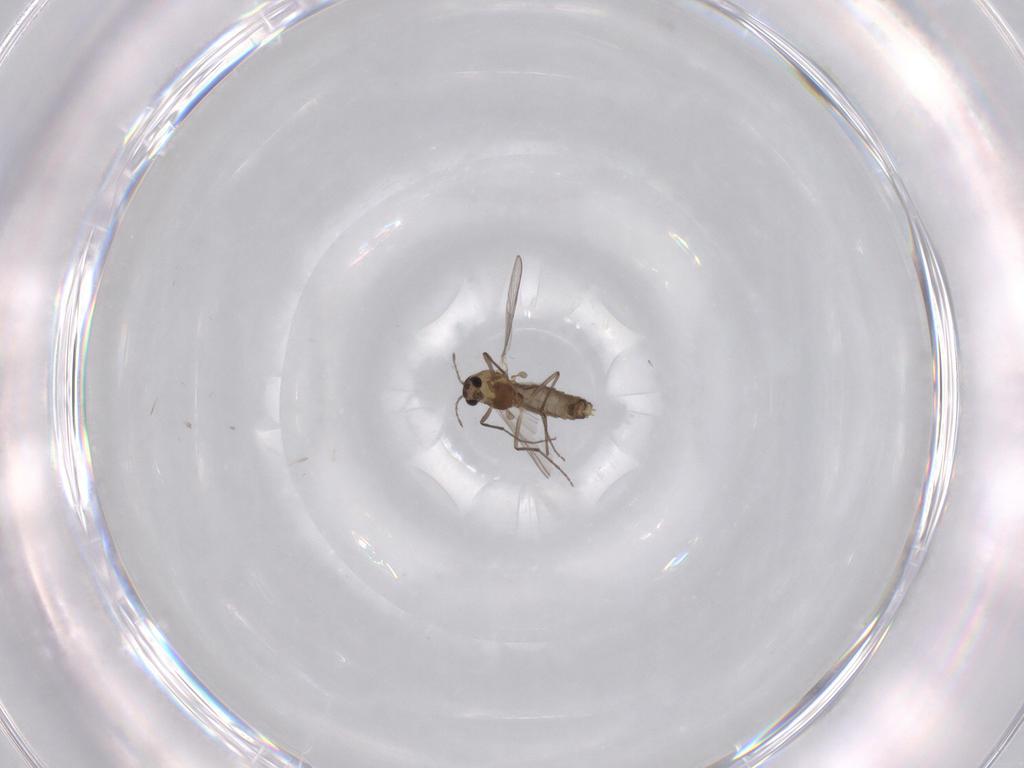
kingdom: Animalia
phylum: Arthropoda
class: Insecta
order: Diptera
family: Chironomidae
